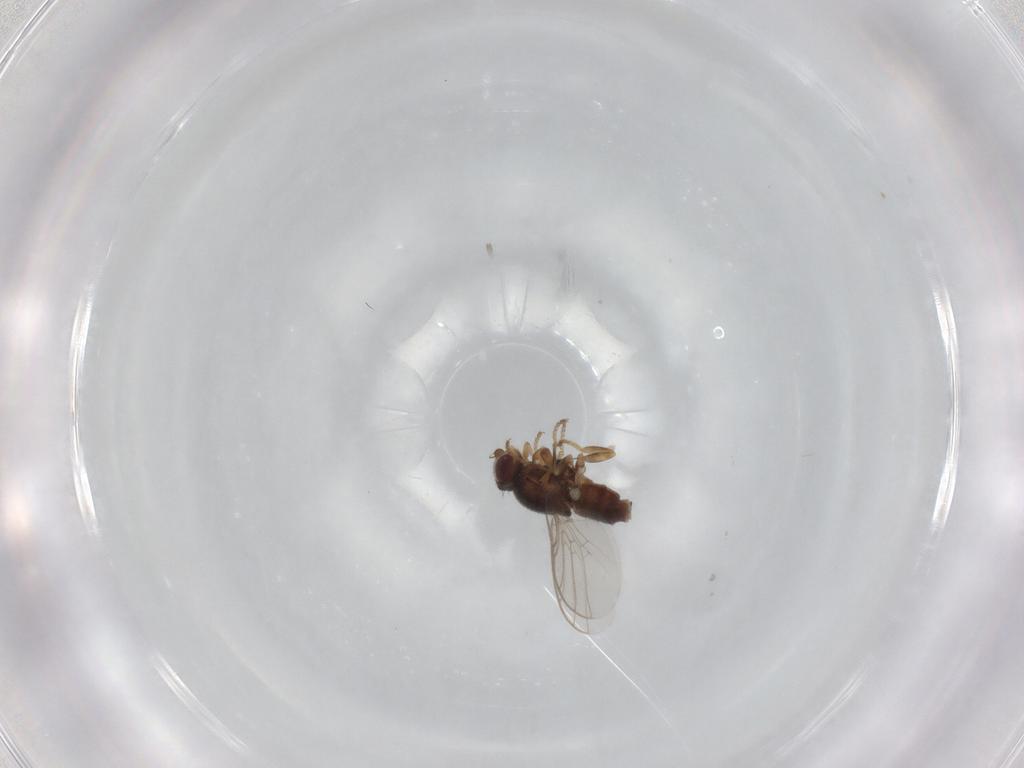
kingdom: Animalia
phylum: Arthropoda
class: Insecta
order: Diptera
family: Chloropidae
